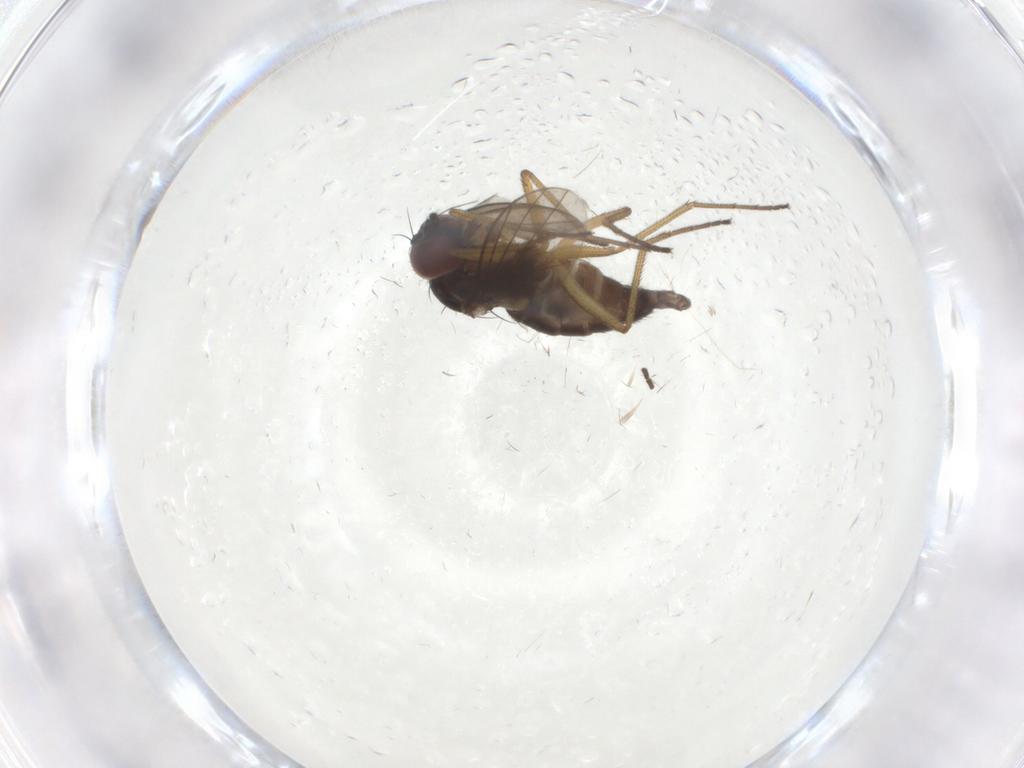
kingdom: Animalia
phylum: Arthropoda
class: Insecta
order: Diptera
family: Dolichopodidae
